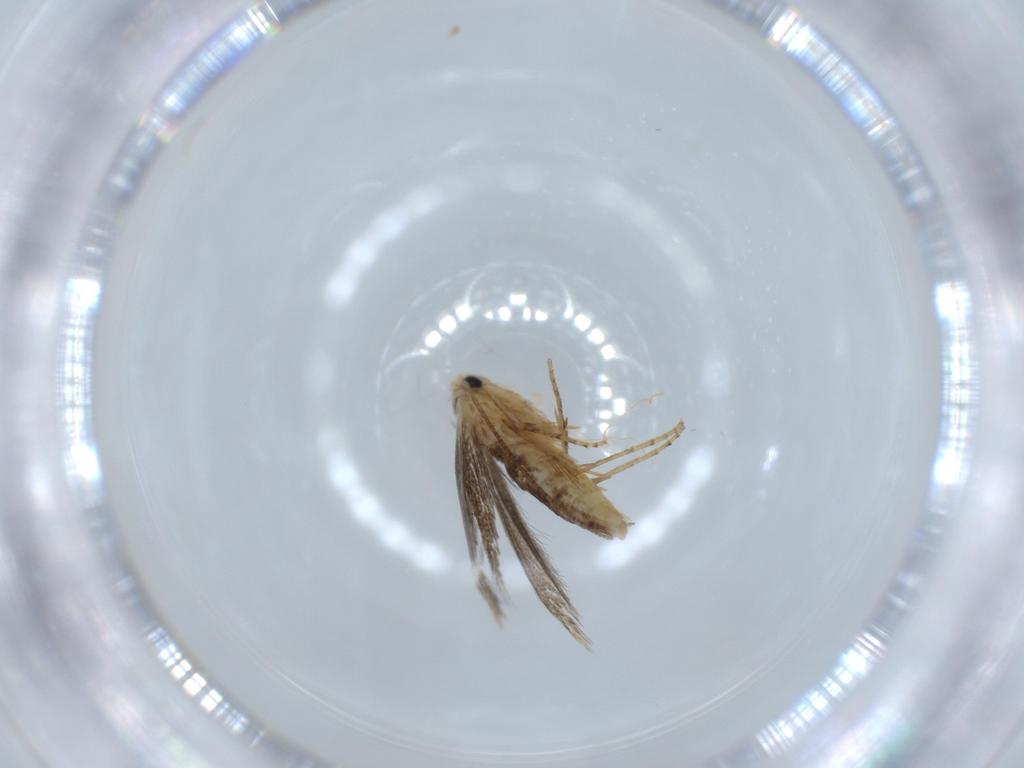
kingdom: Animalia
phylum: Arthropoda
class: Insecta
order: Lepidoptera
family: Bucculatricidae
